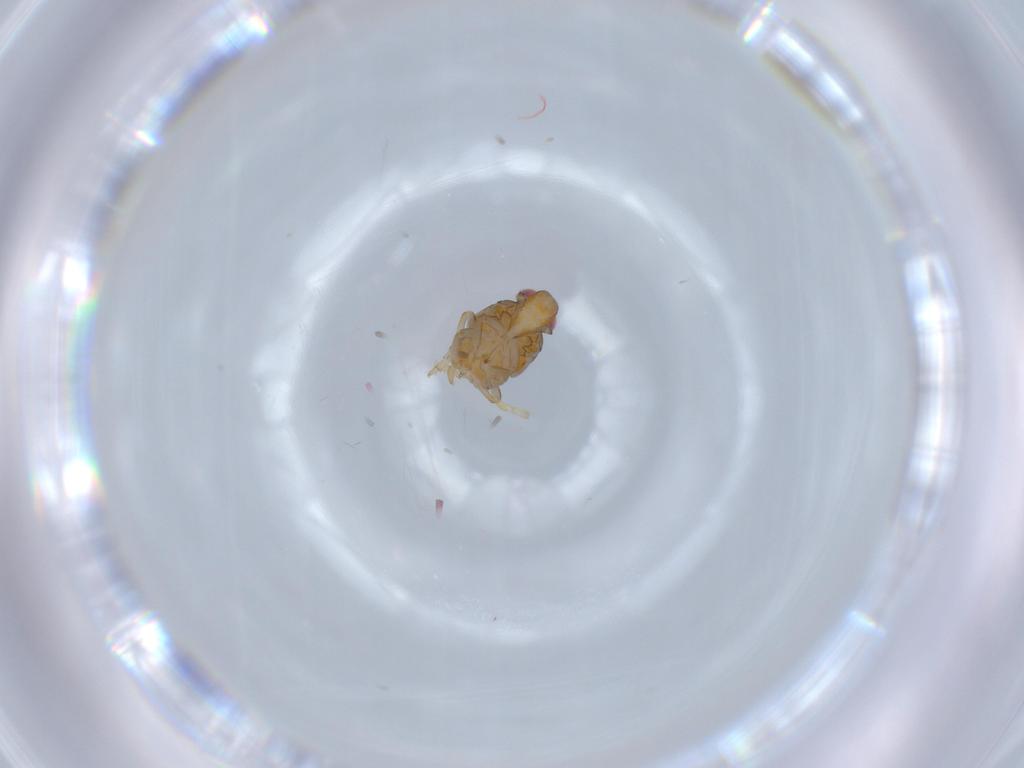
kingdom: Animalia
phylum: Arthropoda
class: Insecta
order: Hemiptera
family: Issidae
